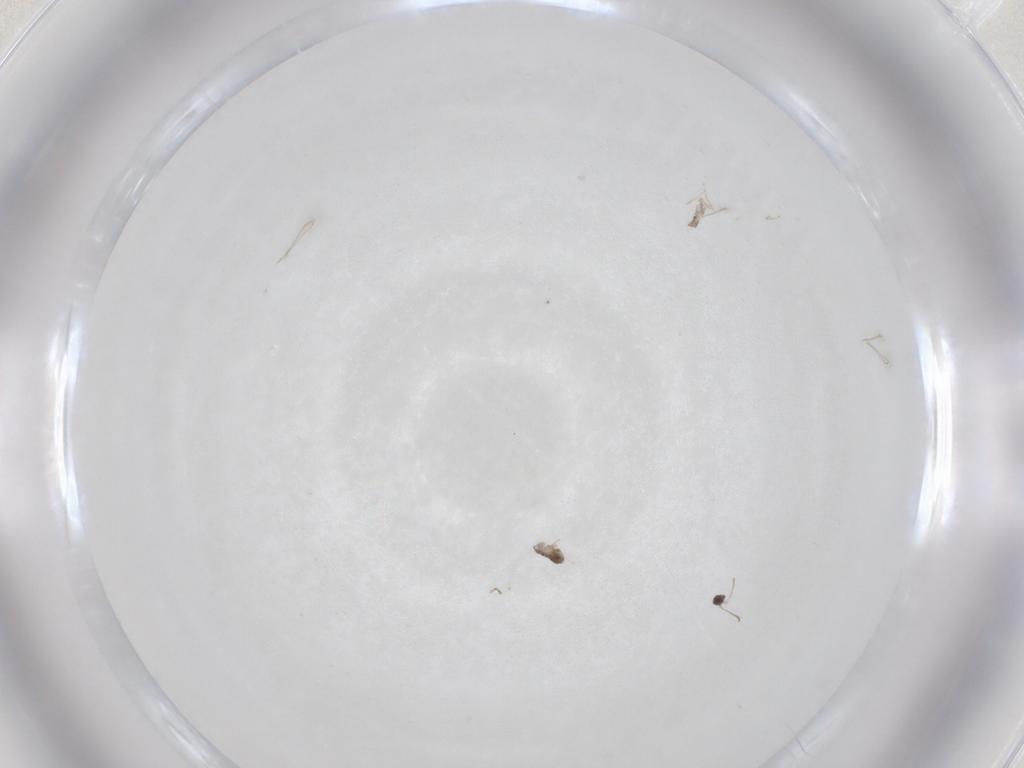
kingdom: Animalia
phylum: Arthropoda
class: Insecta
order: Hymenoptera
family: Mymaridae
